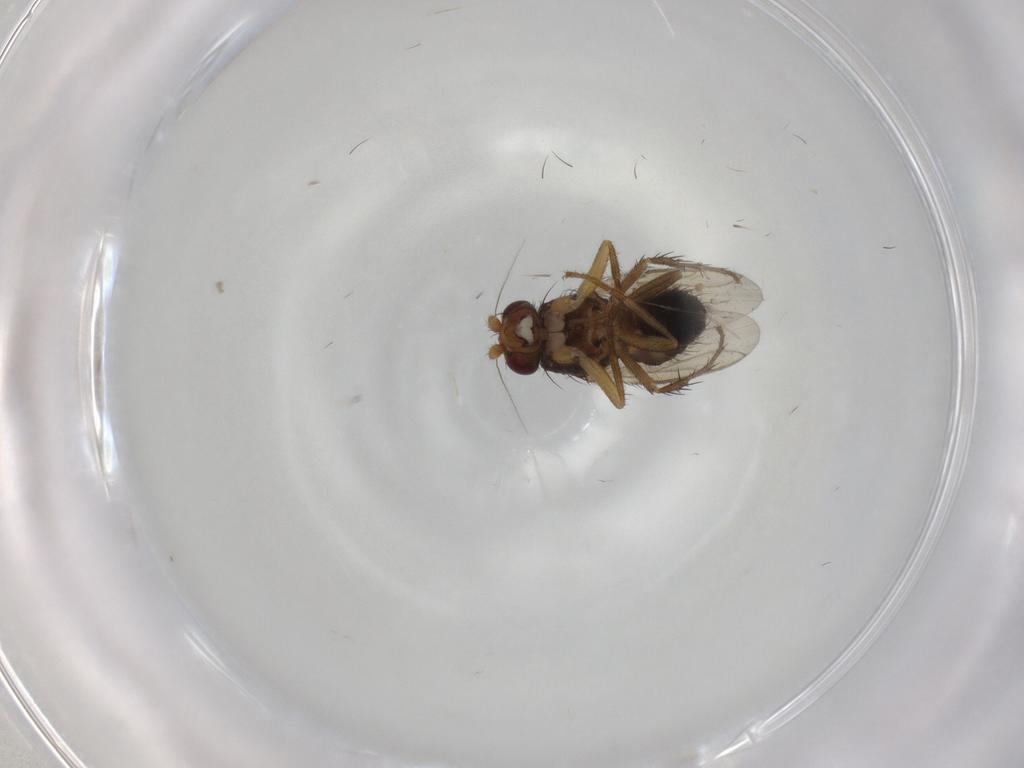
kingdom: Animalia
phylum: Arthropoda
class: Insecta
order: Diptera
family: Sphaeroceridae
